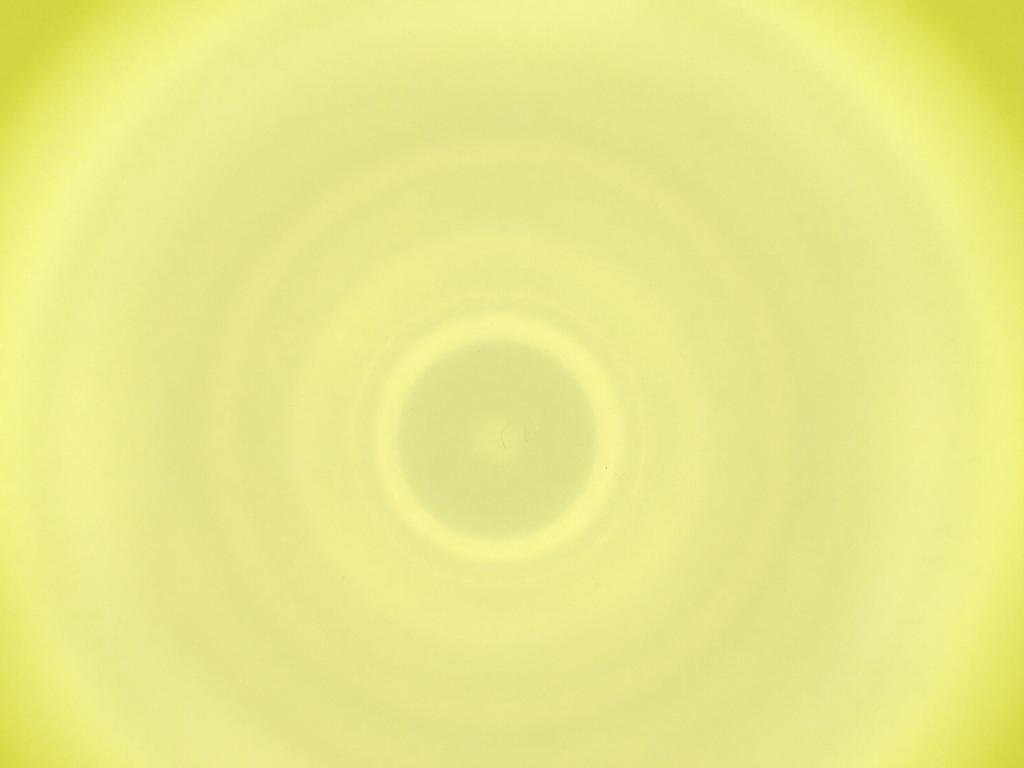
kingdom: Animalia
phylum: Arthropoda
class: Insecta
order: Diptera
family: Cecidomyiidae
